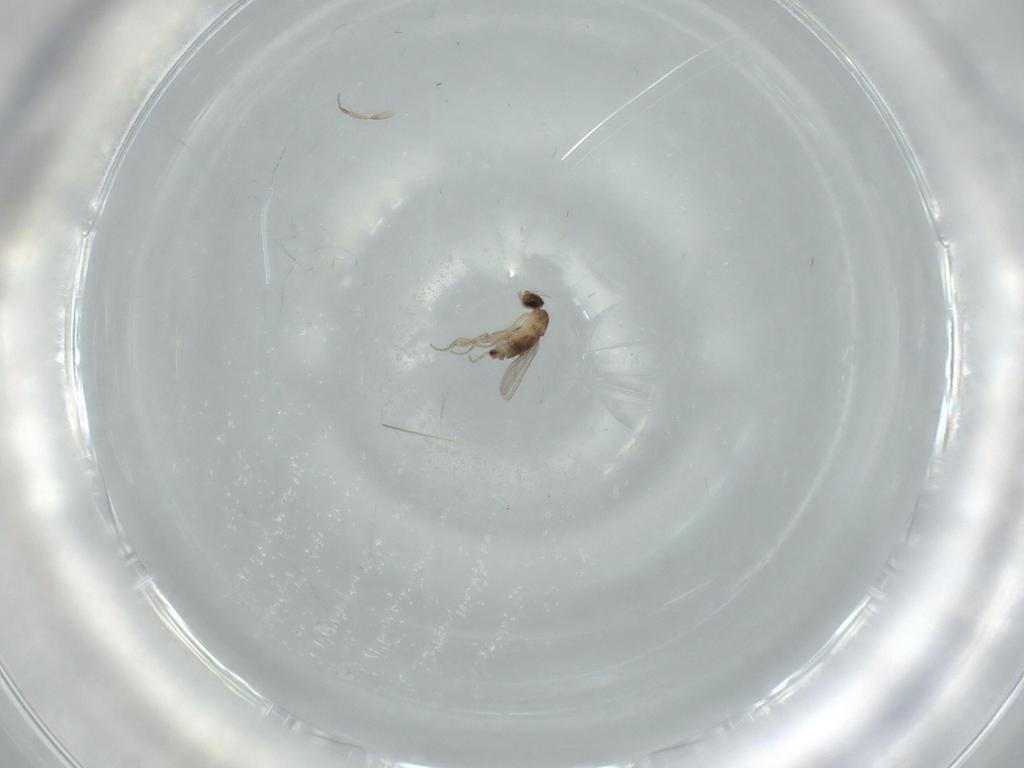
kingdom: Animalia
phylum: Arthropoda
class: Insecta
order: Diptera
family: Phoridae
